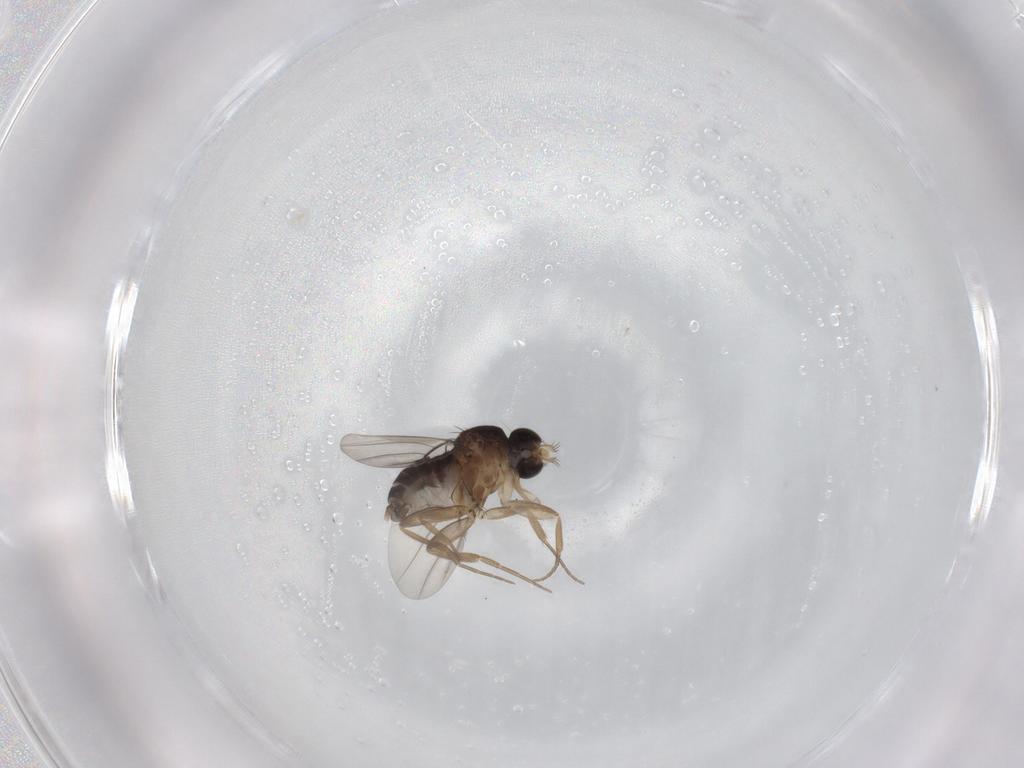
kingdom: Animalia
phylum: Arthropoda
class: Insecta
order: Diptera
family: Phoridae
